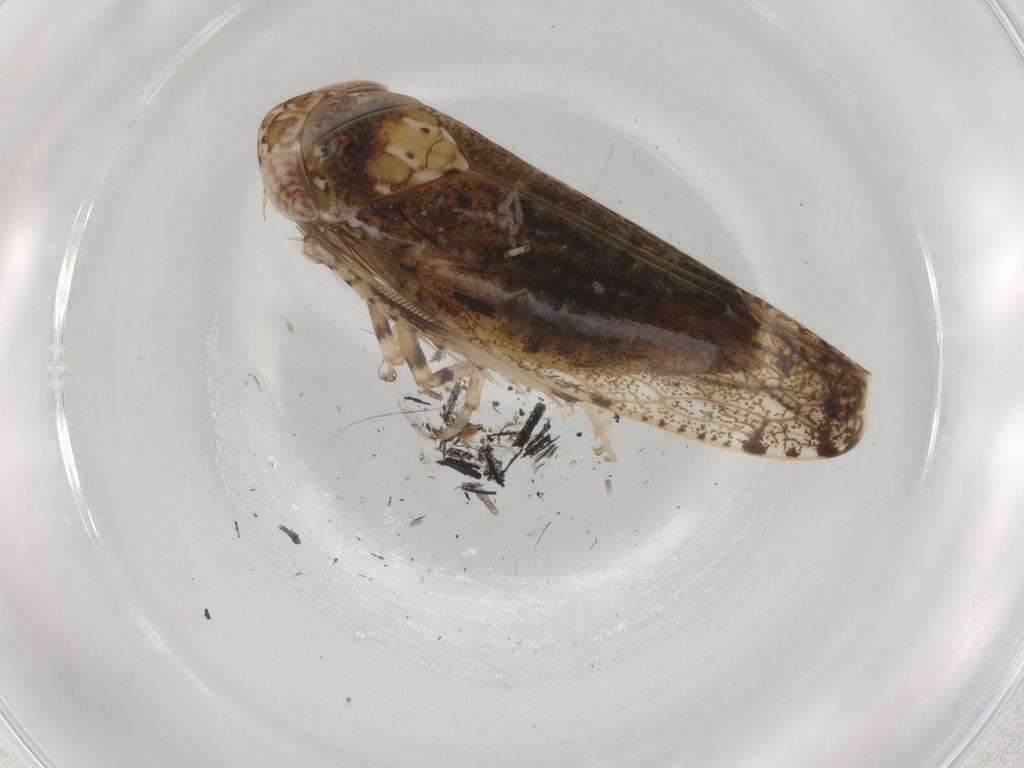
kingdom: Animalia
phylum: Arthropoda
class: Insecta
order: Hemiptera
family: Cicadellidae
